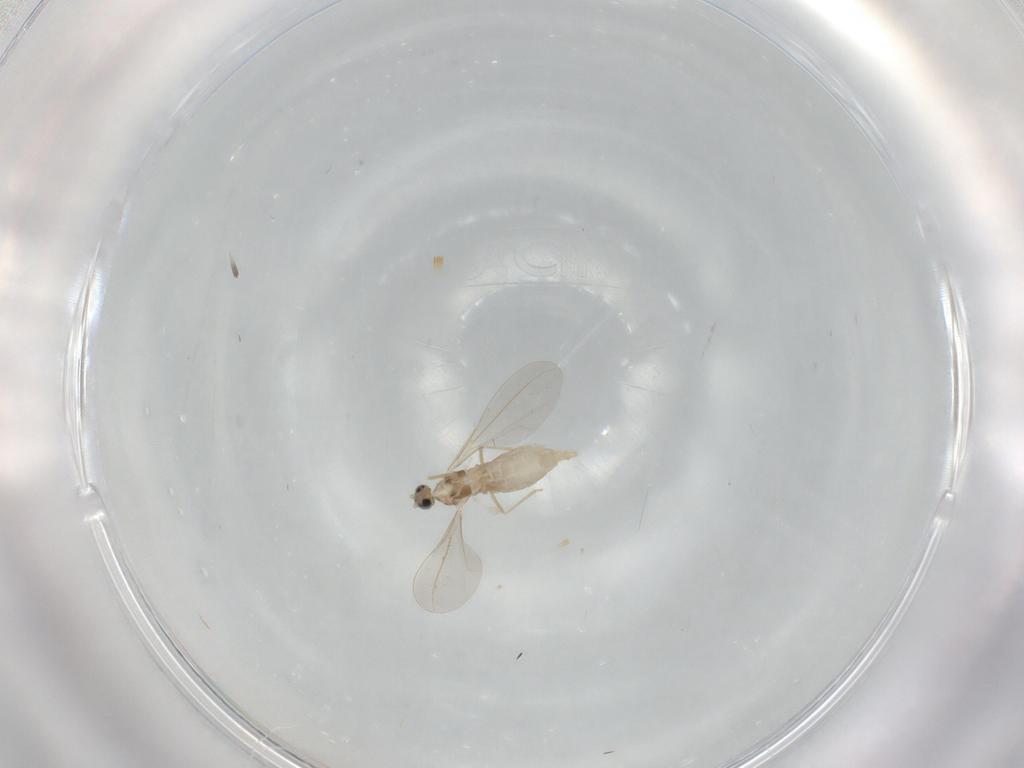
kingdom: Animalia
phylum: Arthropoda
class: Insecta
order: Diptera
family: Cecidomyiidae
